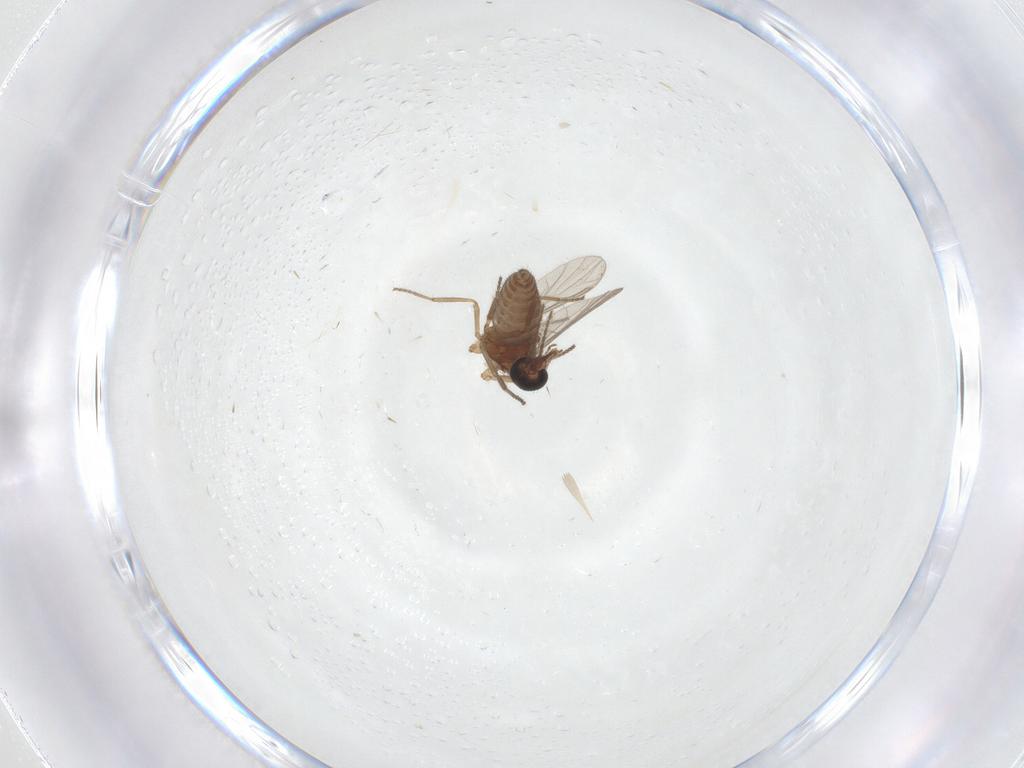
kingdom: Animalia
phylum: Arthropoda
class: Insecta
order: Diptera
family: Ceratopogonidae
